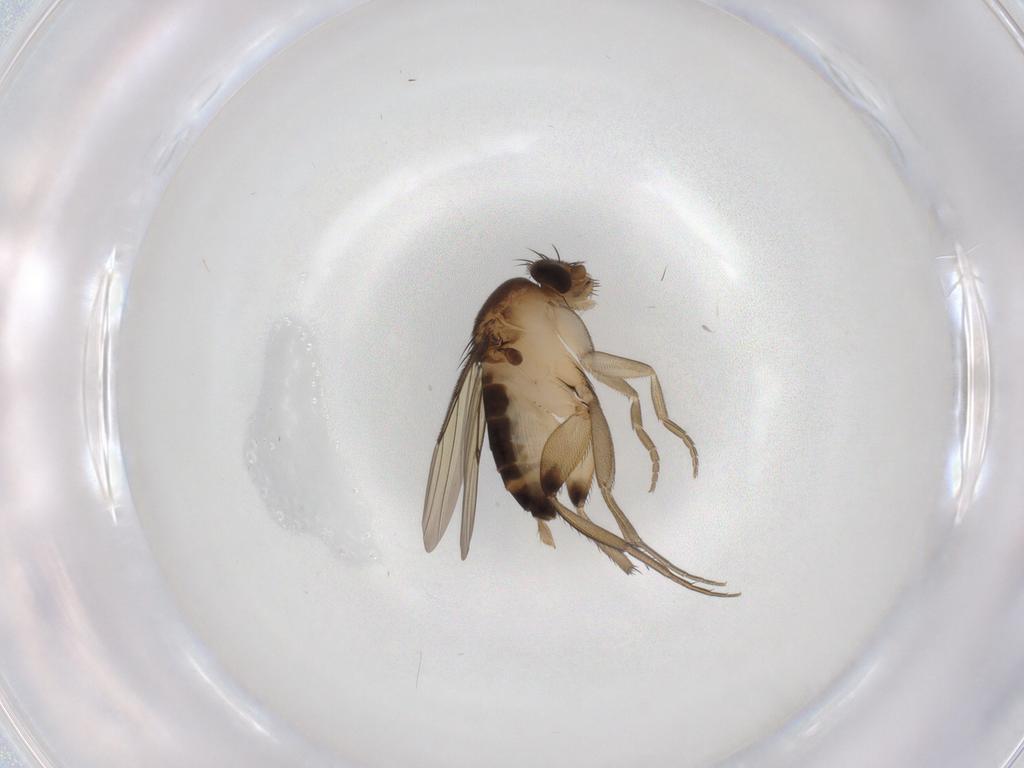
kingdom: Animalia
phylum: Arthropoda
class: Insecta
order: Diptera
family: Phoridae
